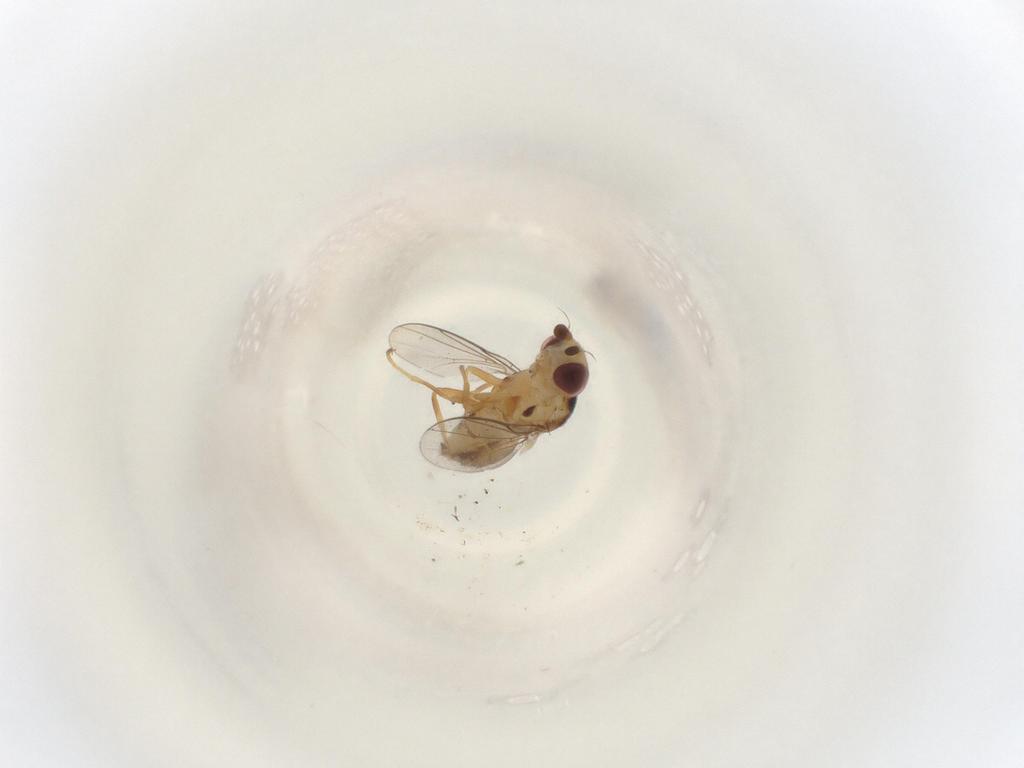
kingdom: Animalia
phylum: Arthropoda
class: Insecta
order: Diptera
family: Chloropidae
